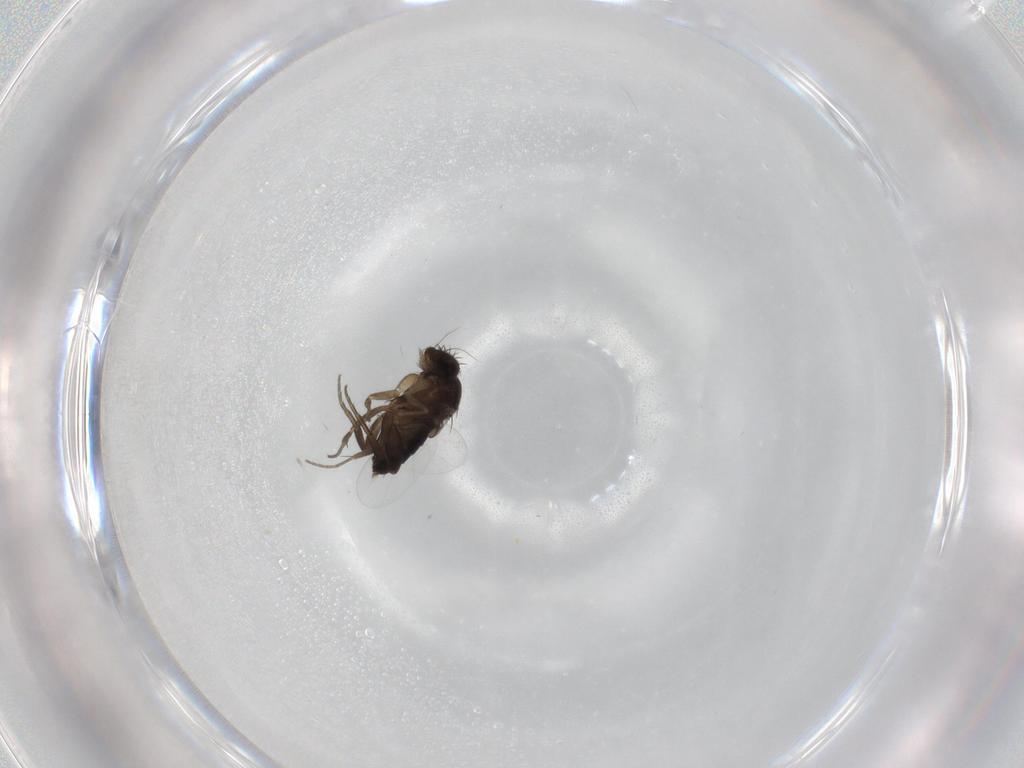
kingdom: Animalia
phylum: Arthropoda
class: Insecta
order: Diptera
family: Phoridae
